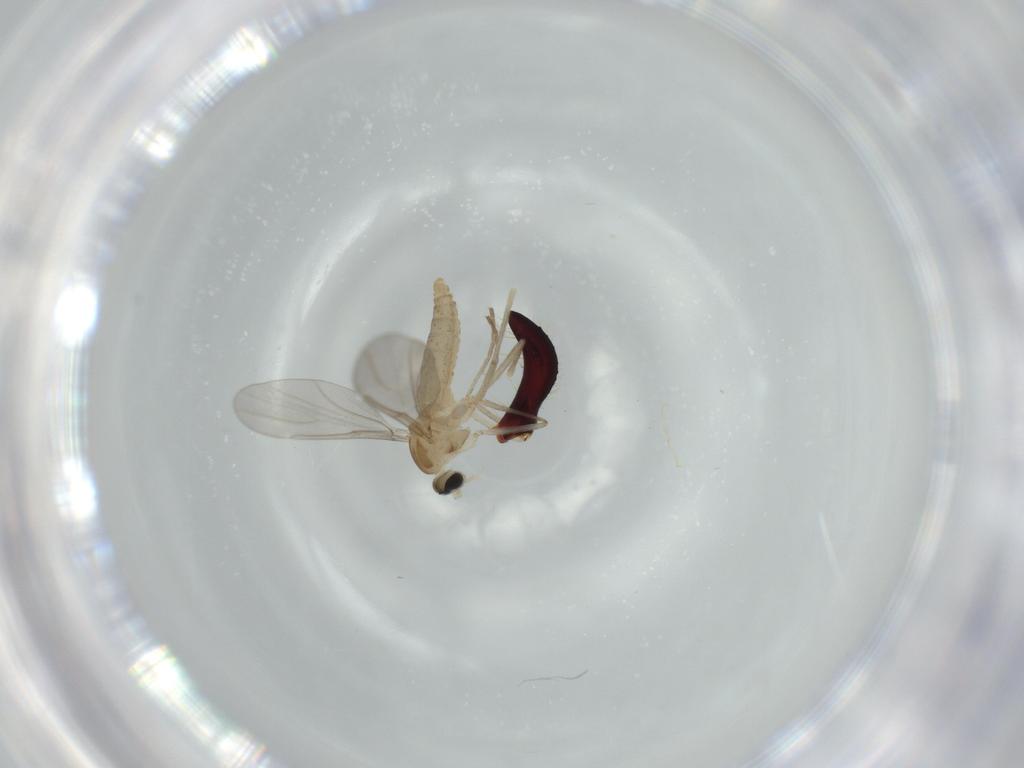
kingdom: Animalia
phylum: Arthropoda
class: Insecta
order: Diptera
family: Cecidomyiidae
